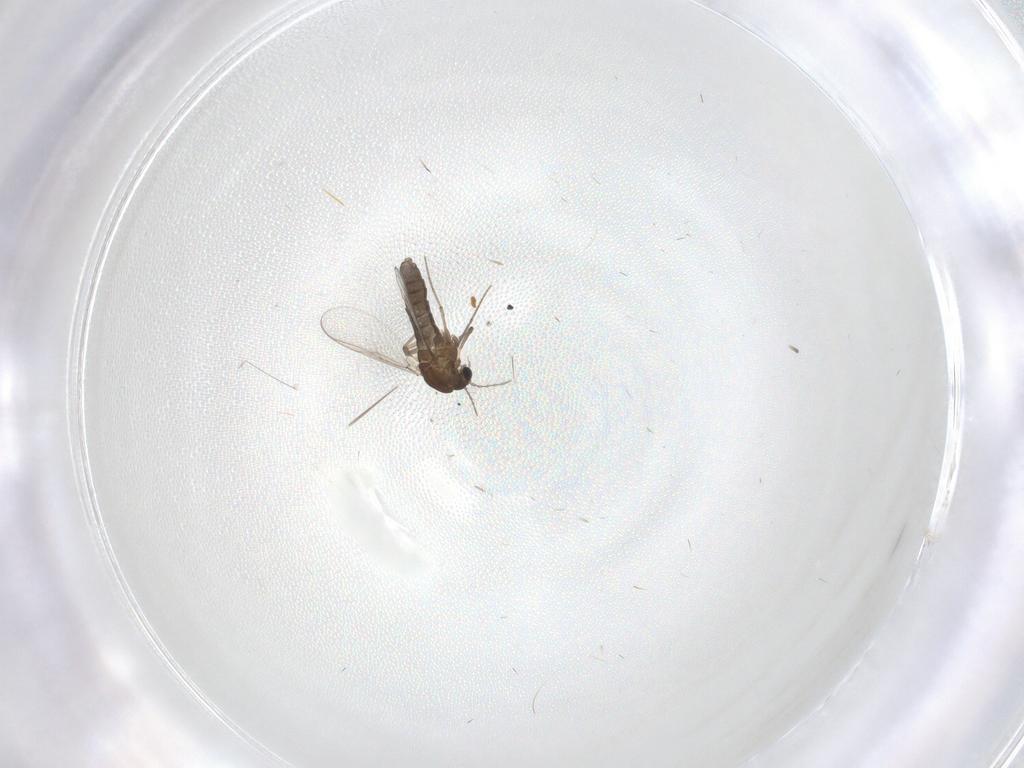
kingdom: Animalia
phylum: Arthropoda
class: Insecta
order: Diptera
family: Chironomidae
